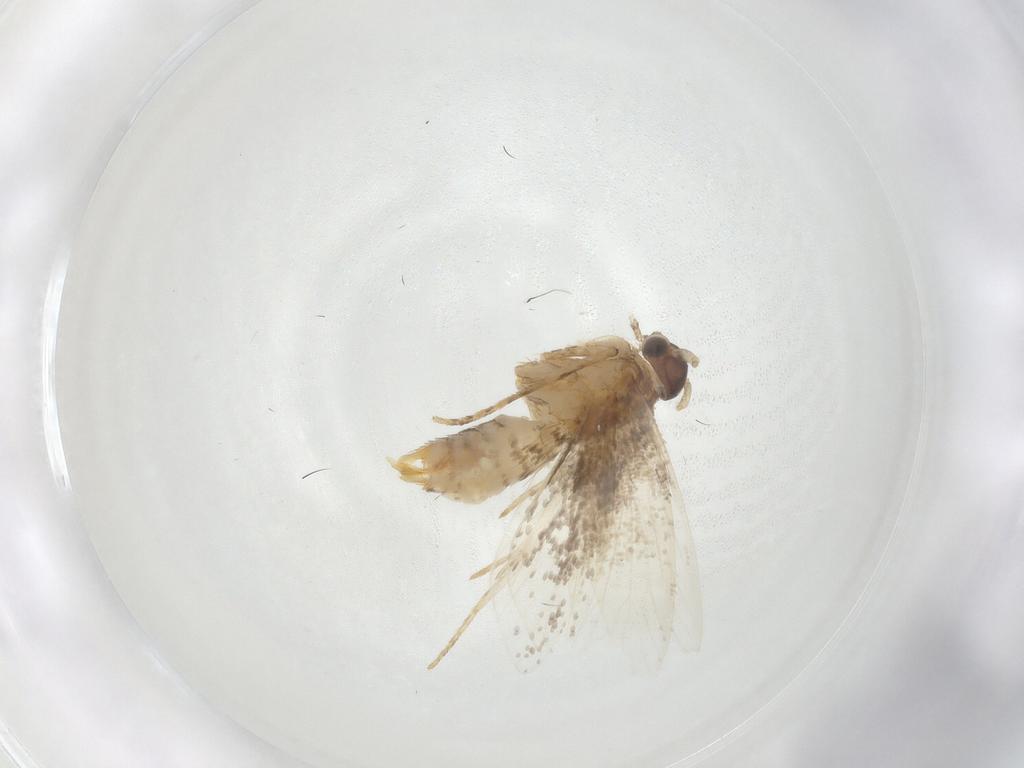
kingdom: Animalia
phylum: Arthropoda
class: Insecta
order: Lepidoptera
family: Dryadaulidae
